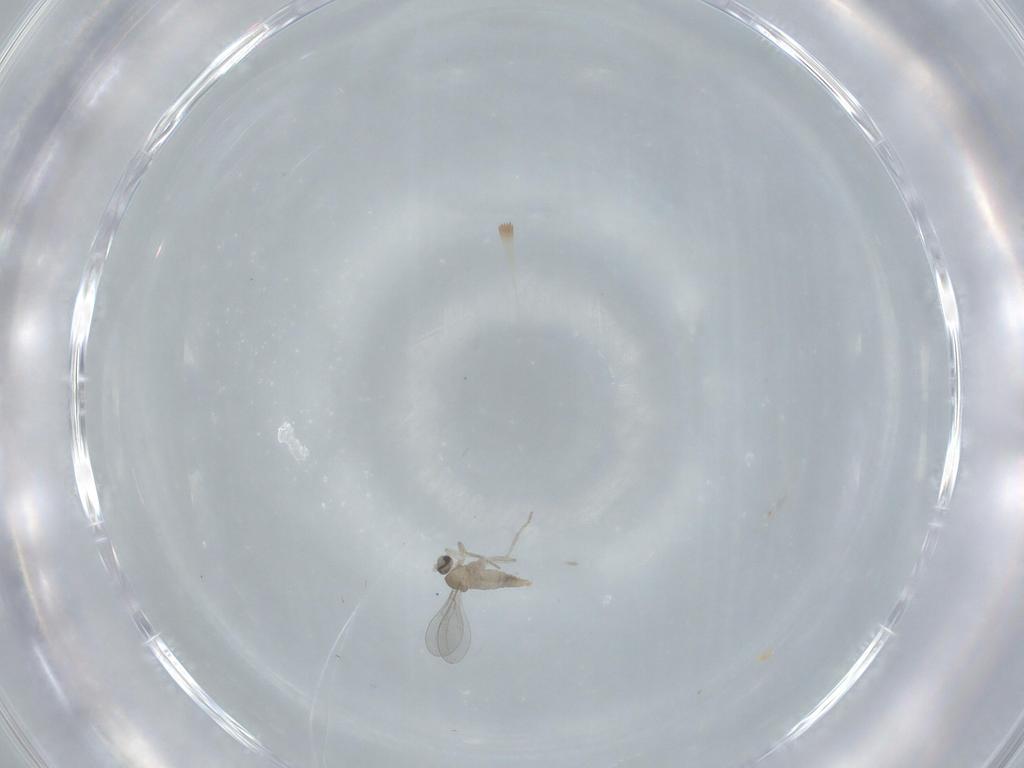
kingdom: Animalia
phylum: Arthropoda
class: Insecta
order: Diptera
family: Cecidomyiidae
